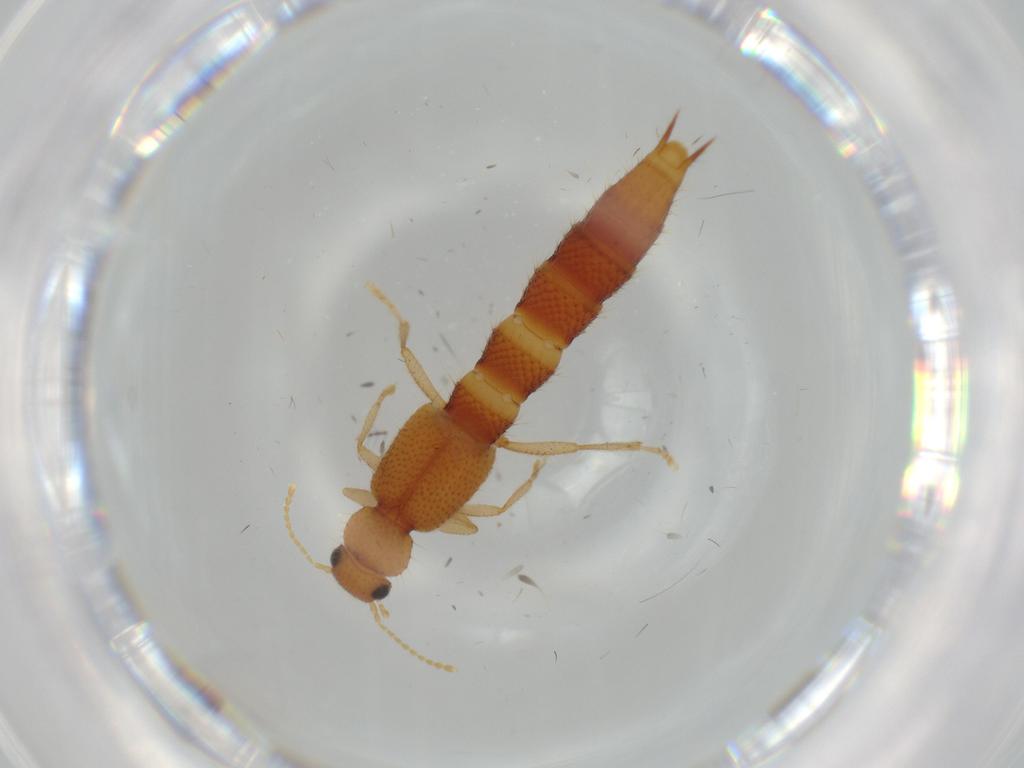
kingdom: Animalia
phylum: Arthropoda
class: Insecta
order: Coleoptera
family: Staphylinidae
